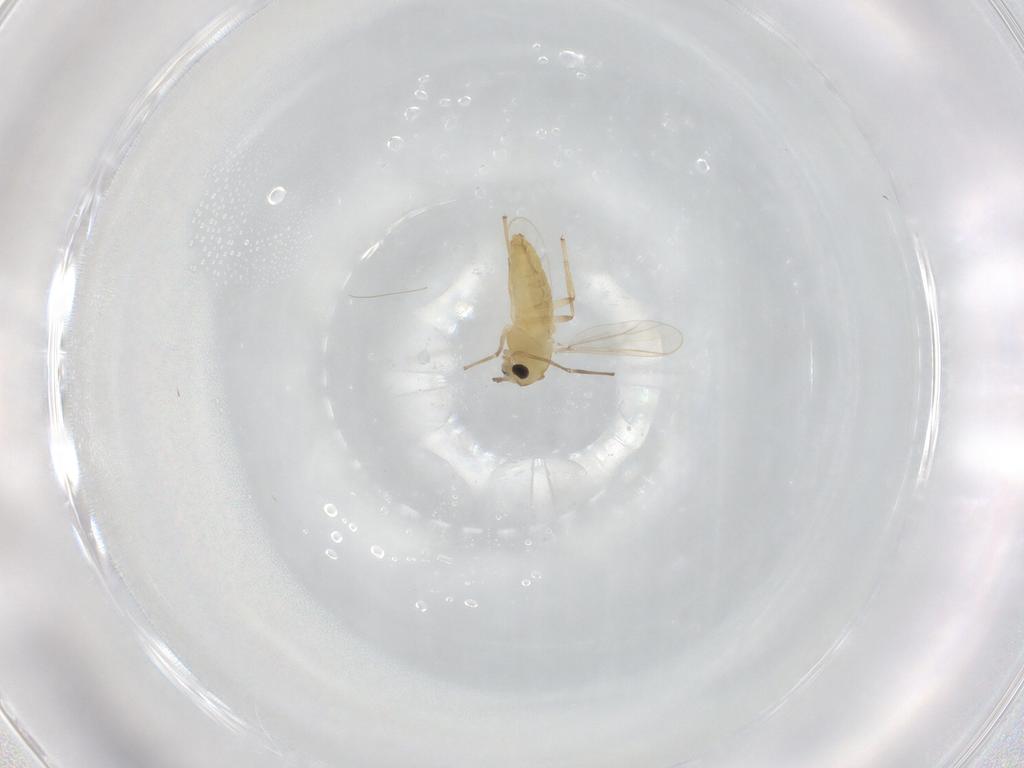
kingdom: Animalia
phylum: Arthropoda
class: Insecta
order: Diptera
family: Chironomidae
